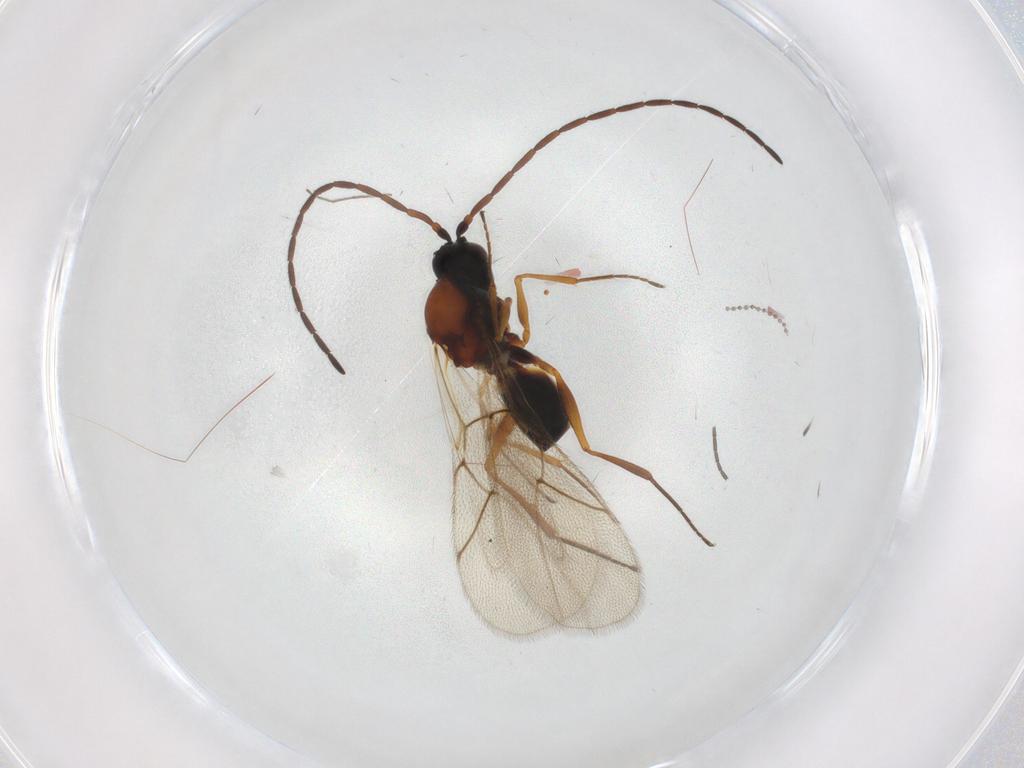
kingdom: Animalia
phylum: Arthropoda
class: Insecta
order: Hymenoptera
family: Figitidae
